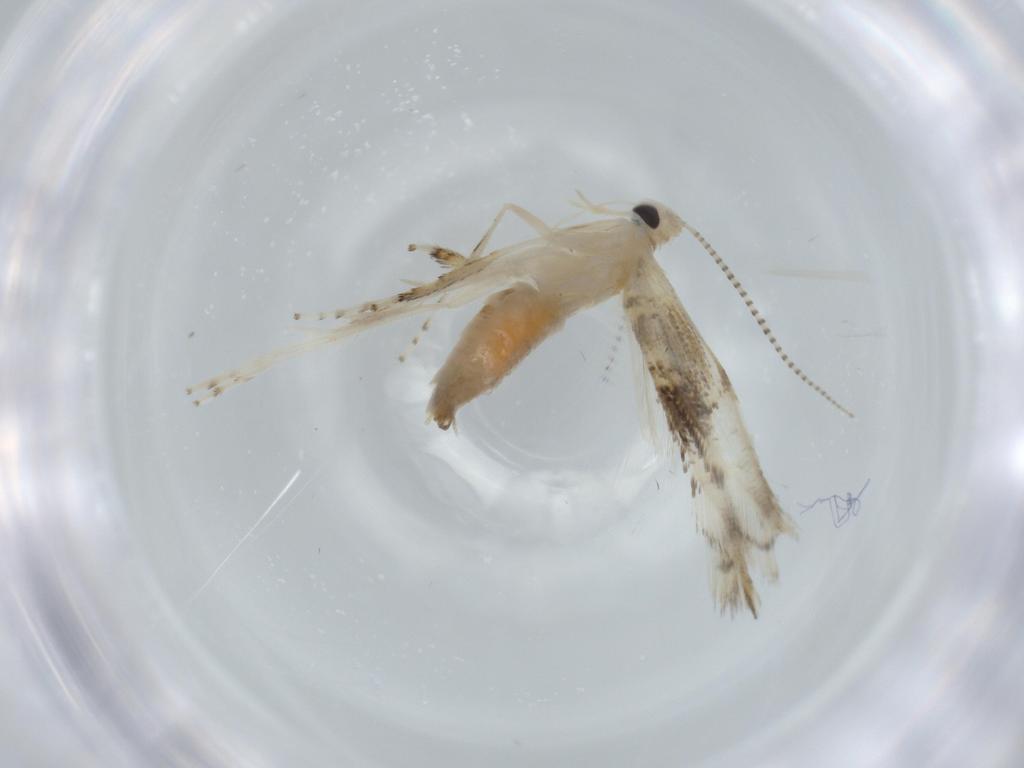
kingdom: Animalia
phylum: Arthropoda
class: Insecta
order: Lepidoptera
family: Gracillariidae
